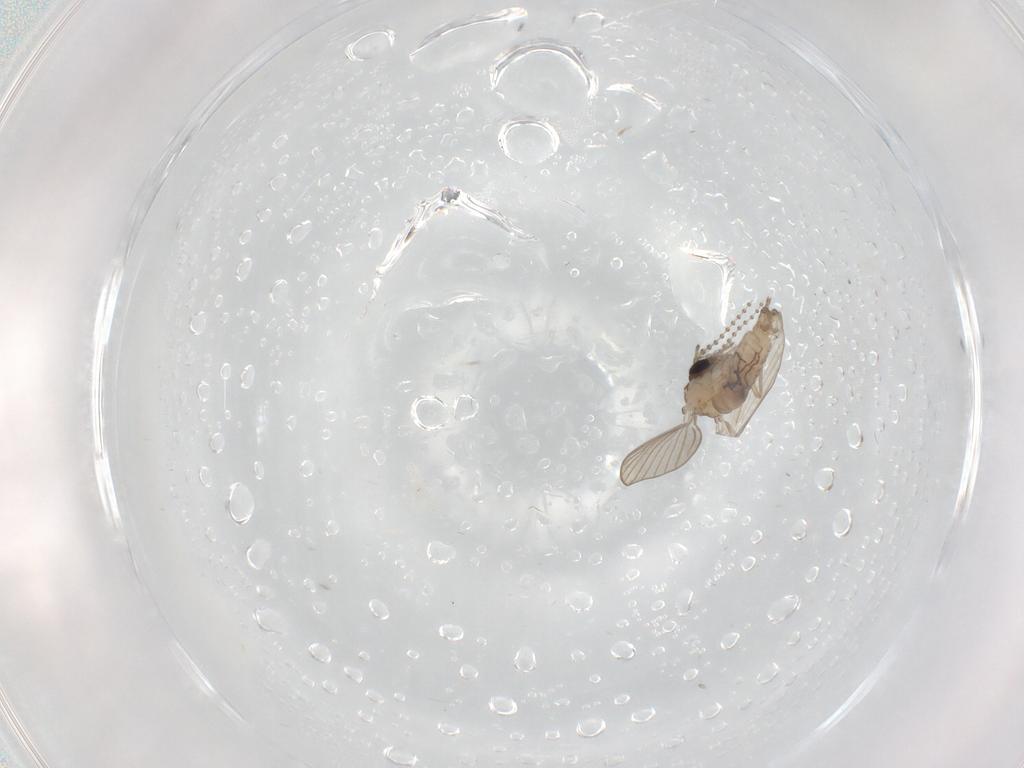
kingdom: Animalia
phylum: Arthropoda
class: Insecta
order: Diptera
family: Psychodidae
